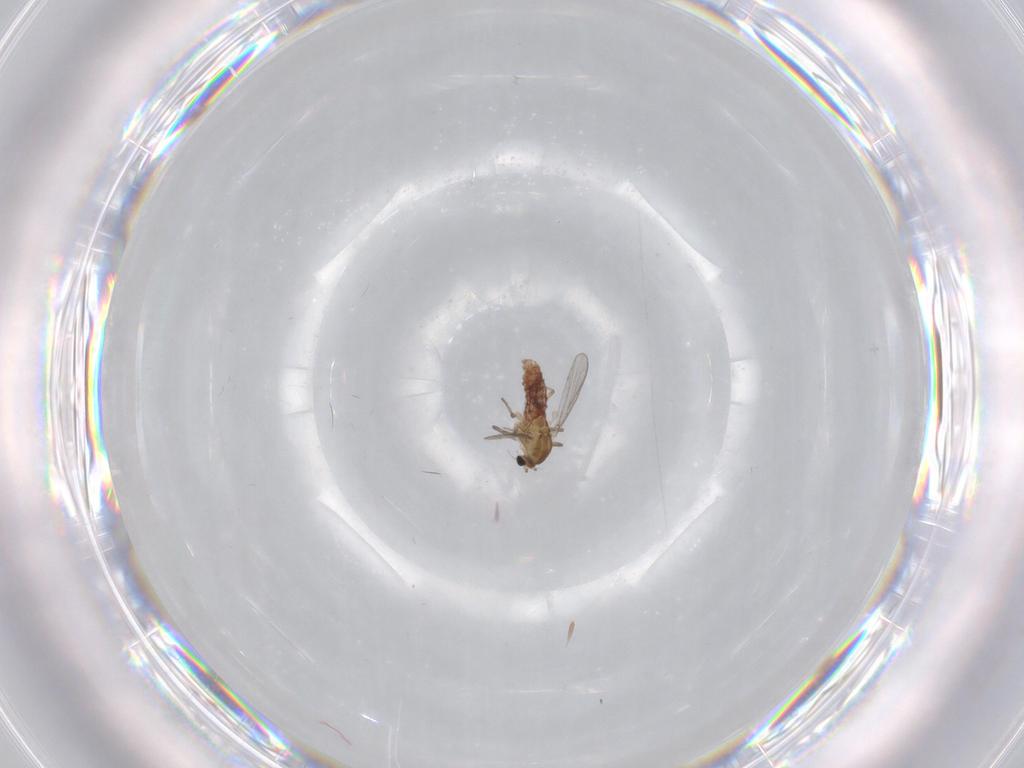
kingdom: Animalia
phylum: Arthropoda
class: Insecta
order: Diptera
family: Chironomidae
